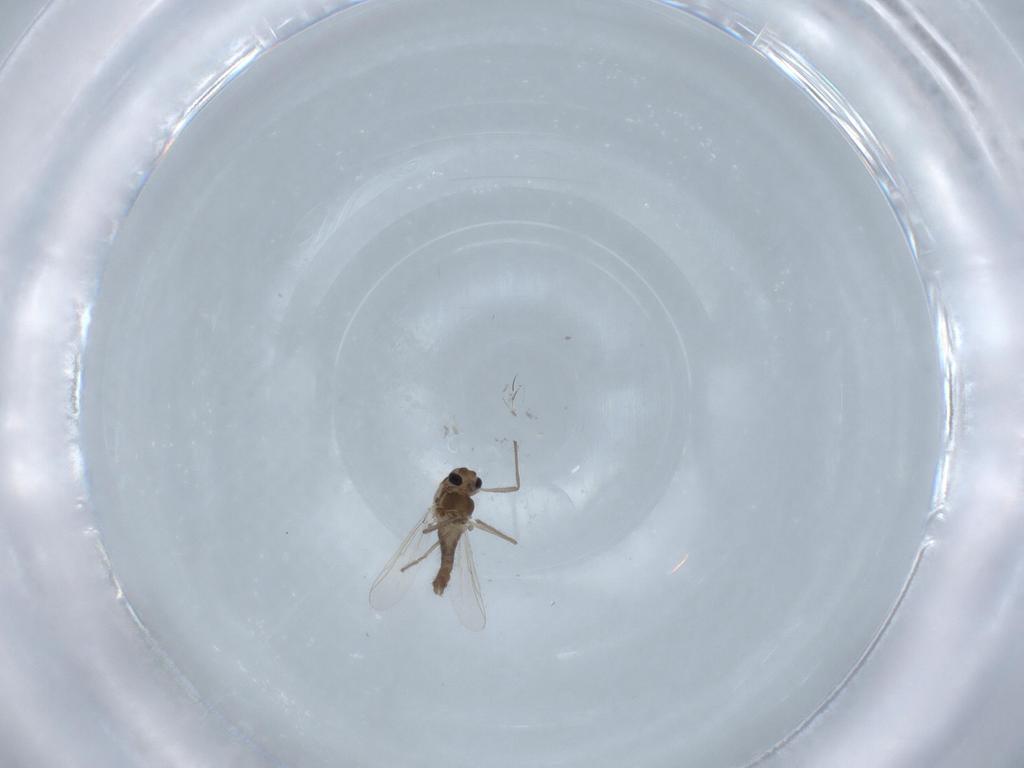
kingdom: Animalia
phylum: Arthropoda
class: Insecta
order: Diptera
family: Chironomidae
